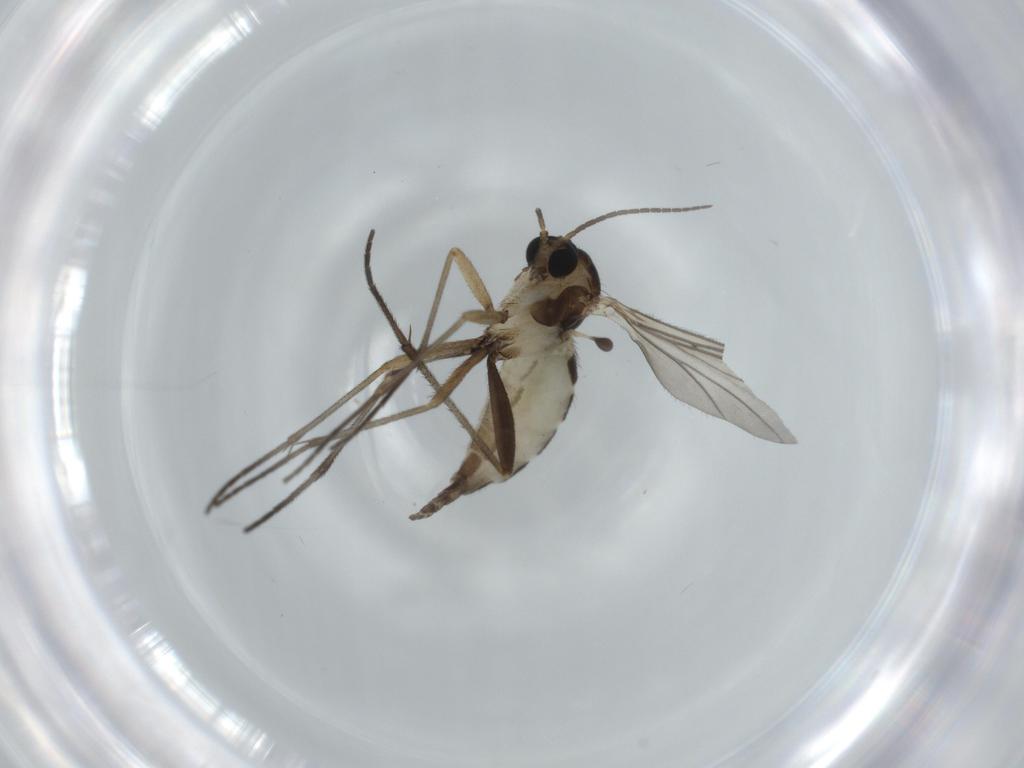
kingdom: Animalia
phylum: Arthropoda
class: Insecta
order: Diptera
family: Sciaridae
